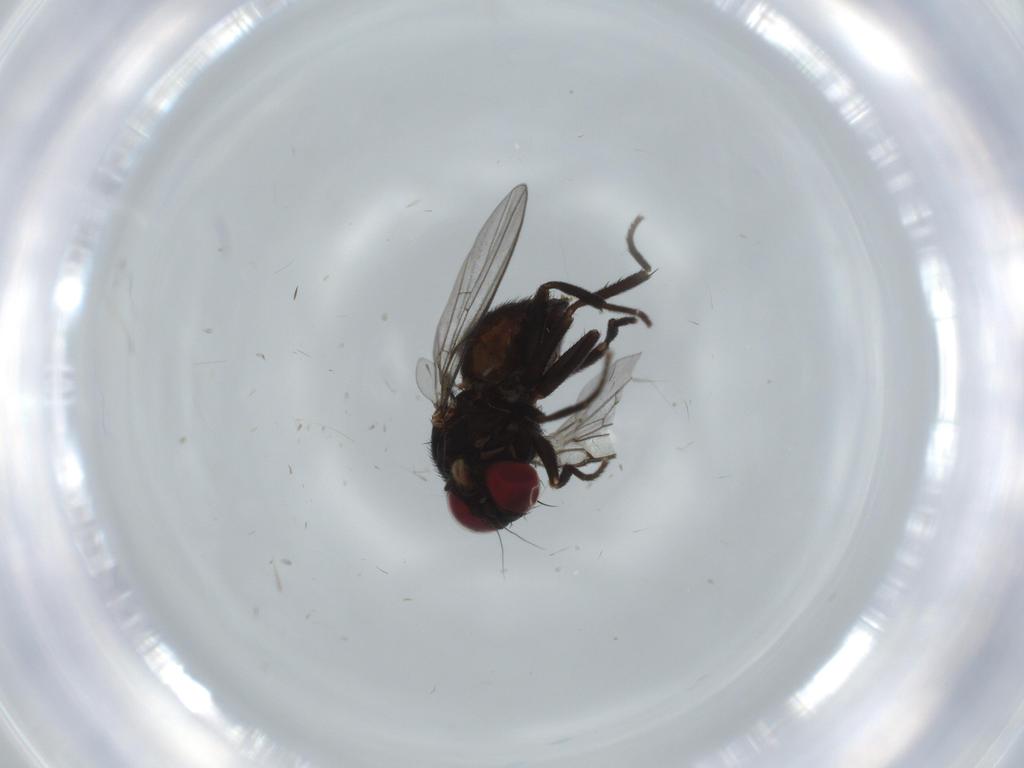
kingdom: Animalia
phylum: Arthropoda
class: Insecta
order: Diptera
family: Agromyzidae
